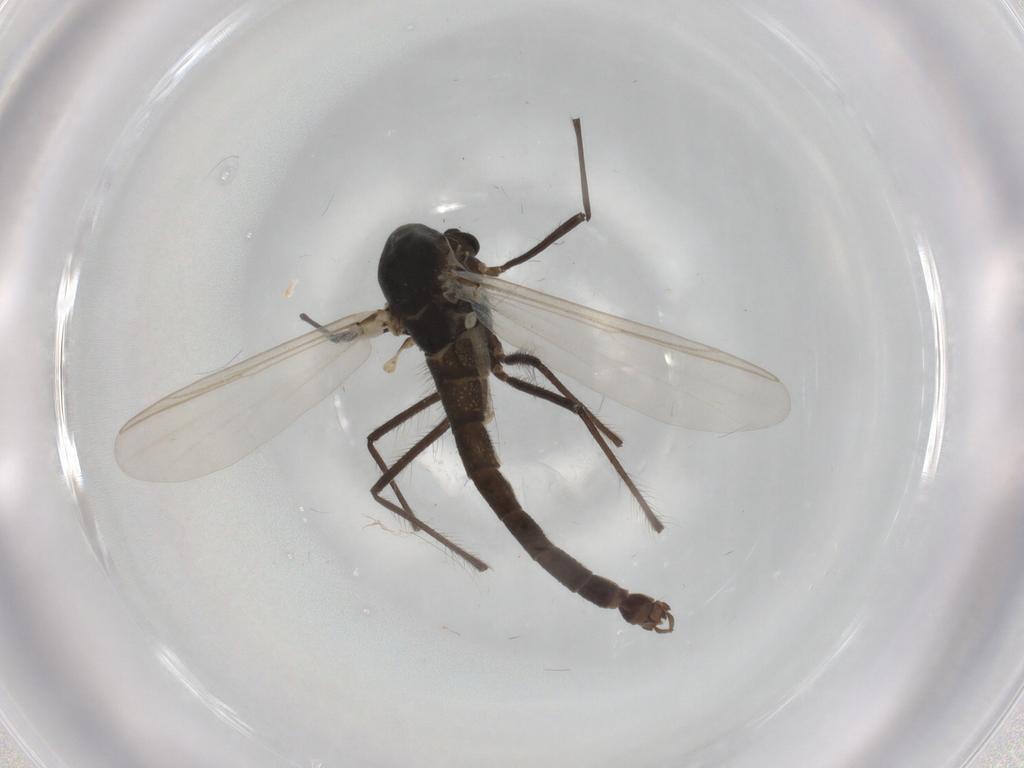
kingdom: Animalia
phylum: Arthropoda
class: Insecta
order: Diptera
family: Chironomidae
